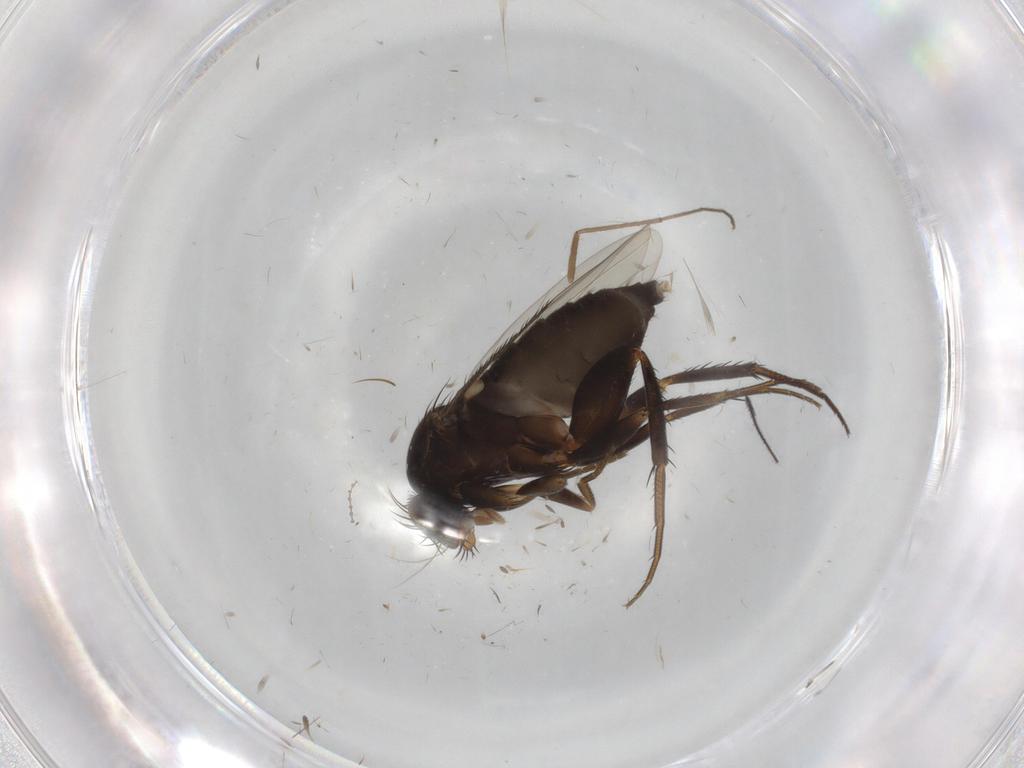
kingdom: Animalia
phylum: Arthropoda
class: Insecta
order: Diptera
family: Phoridae
